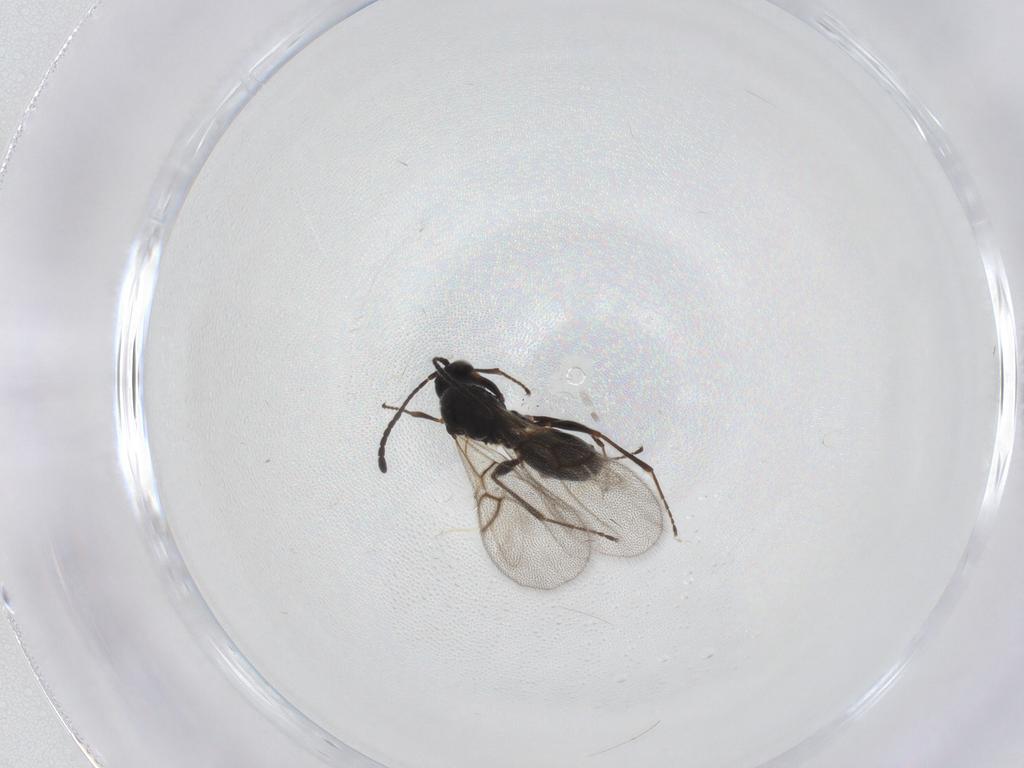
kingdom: Animalia
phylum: Arthropoda
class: Insecta
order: Hymenoptera
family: Figitidae
